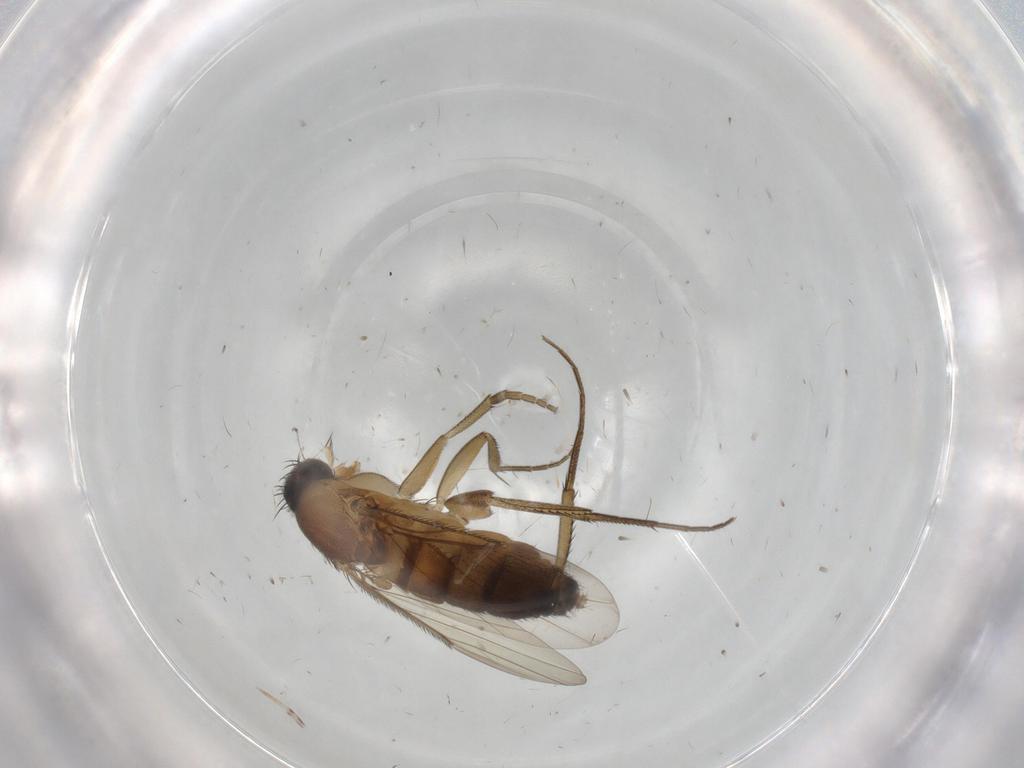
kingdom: Animalia
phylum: Arthropoda
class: Insecta
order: Diptera
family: Phoridae
